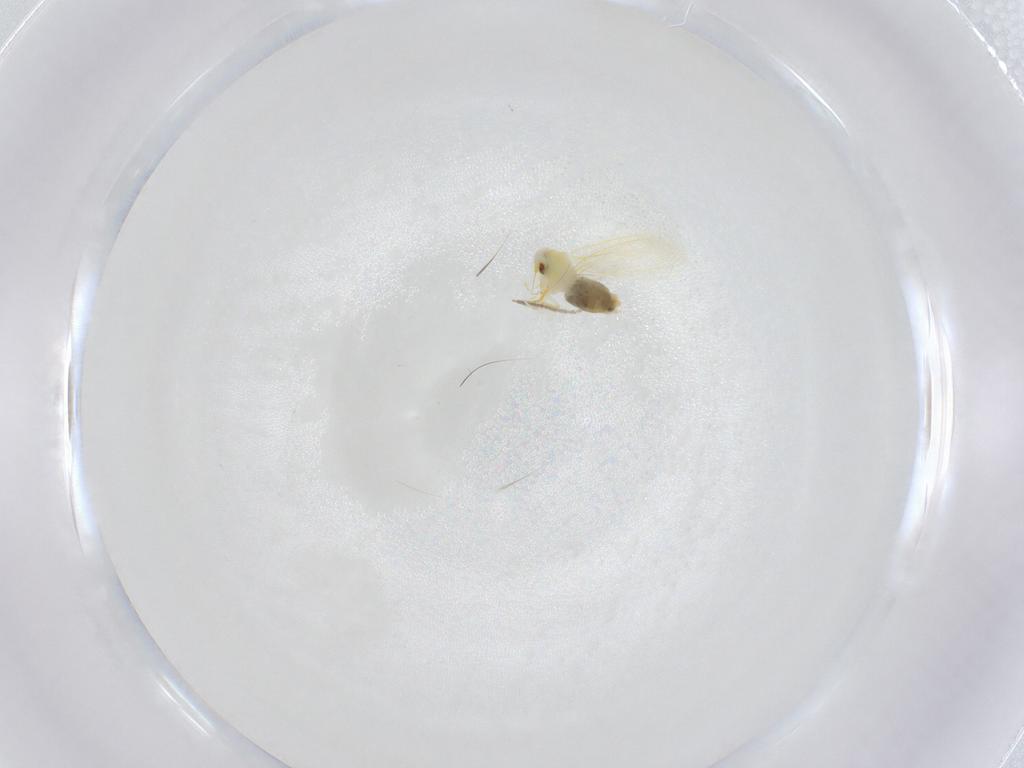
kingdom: Animalia
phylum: Arthropoda
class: Insecta
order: Hemiptera
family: Aleyrodidae
